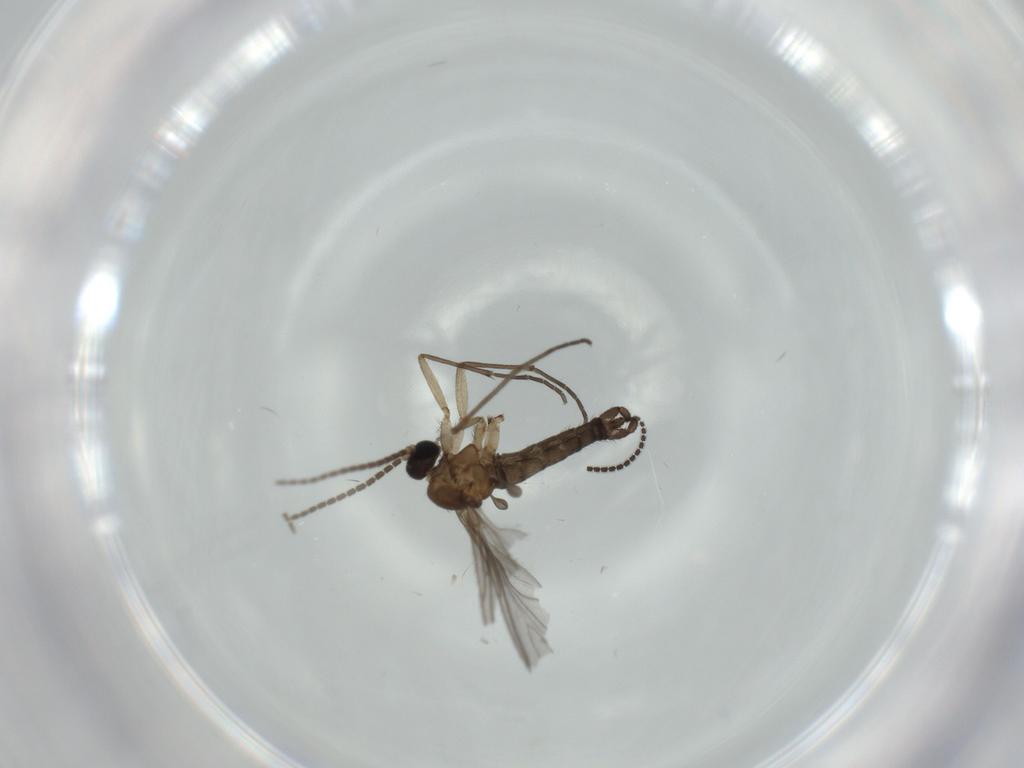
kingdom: Animalia
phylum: Arthropoda
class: Insecta
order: Diptera
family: Sciaridae
